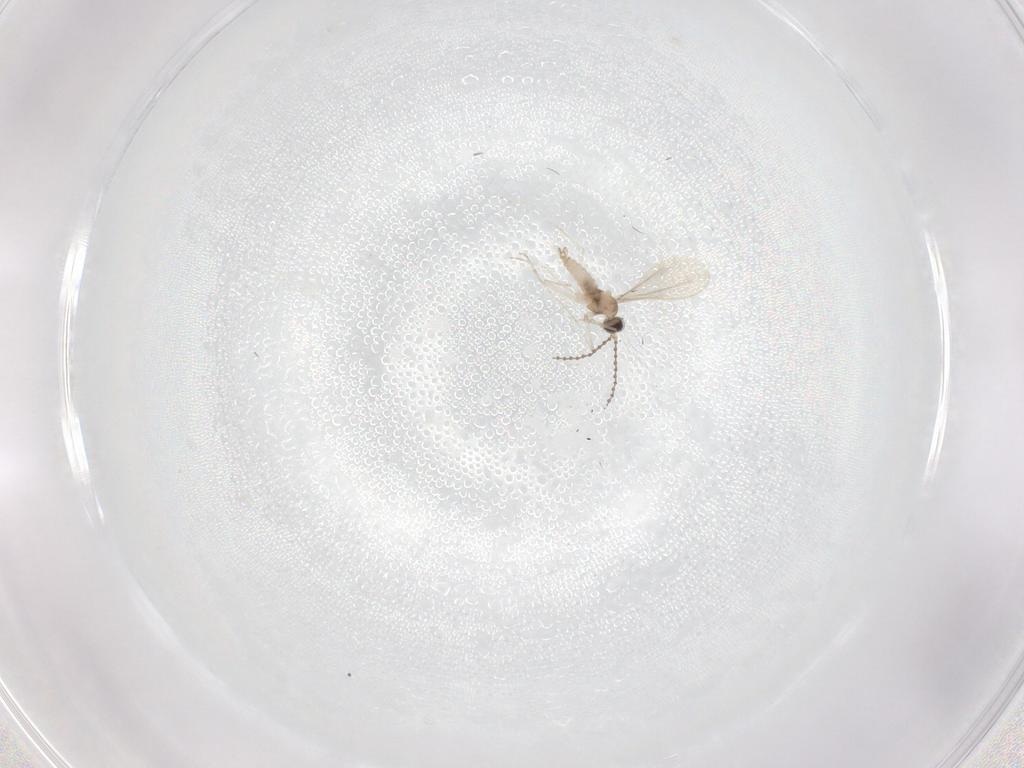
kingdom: Animalia
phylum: Arthropoda
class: Insecta
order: Diptera
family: Cecidomyiidae
